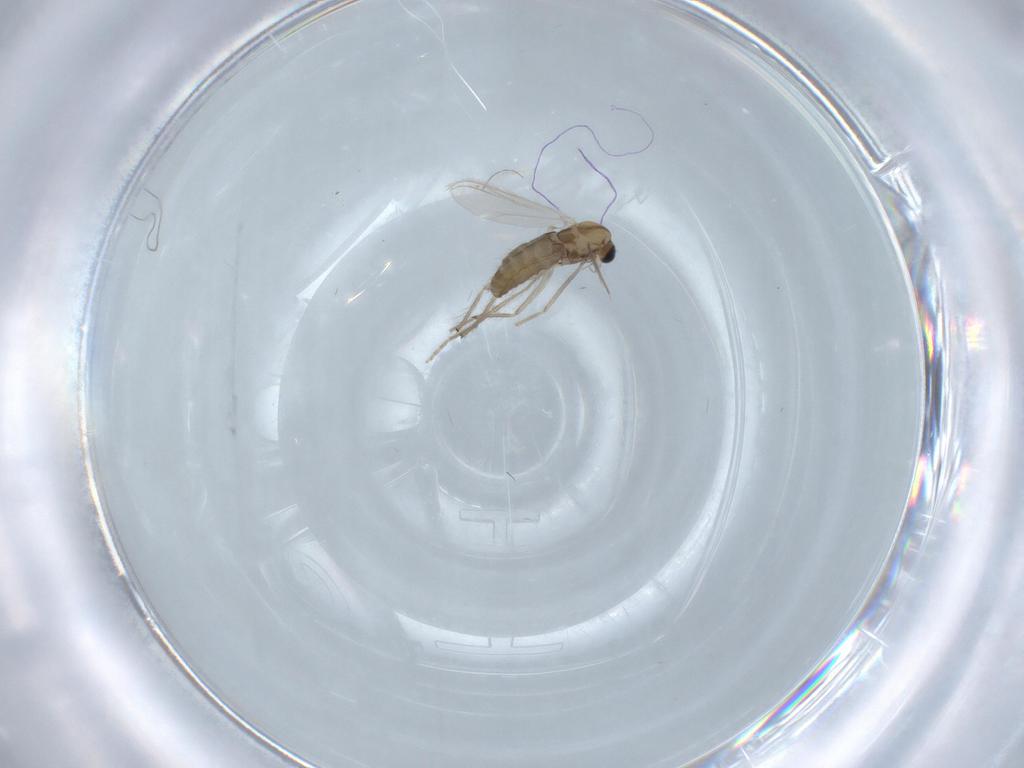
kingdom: Animalia
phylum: Arthropoda
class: Insecta
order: Diptera
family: Chironomidae
